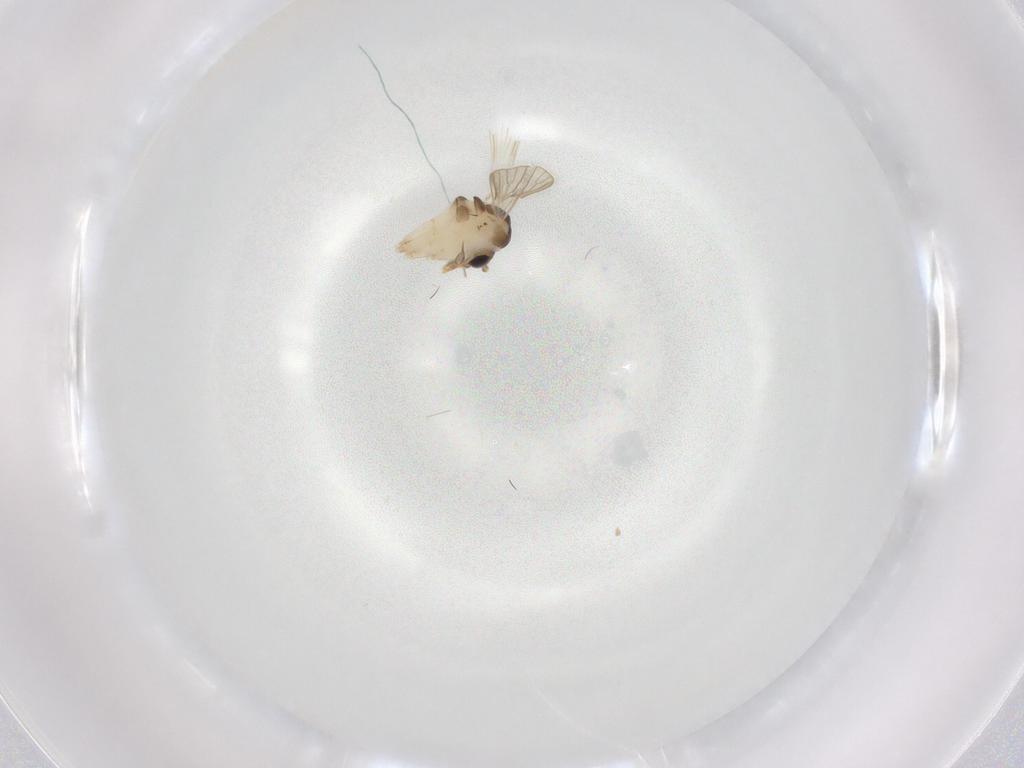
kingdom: Animalia
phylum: Arthropoda
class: Insecta
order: Diptera
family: Psychodidae
